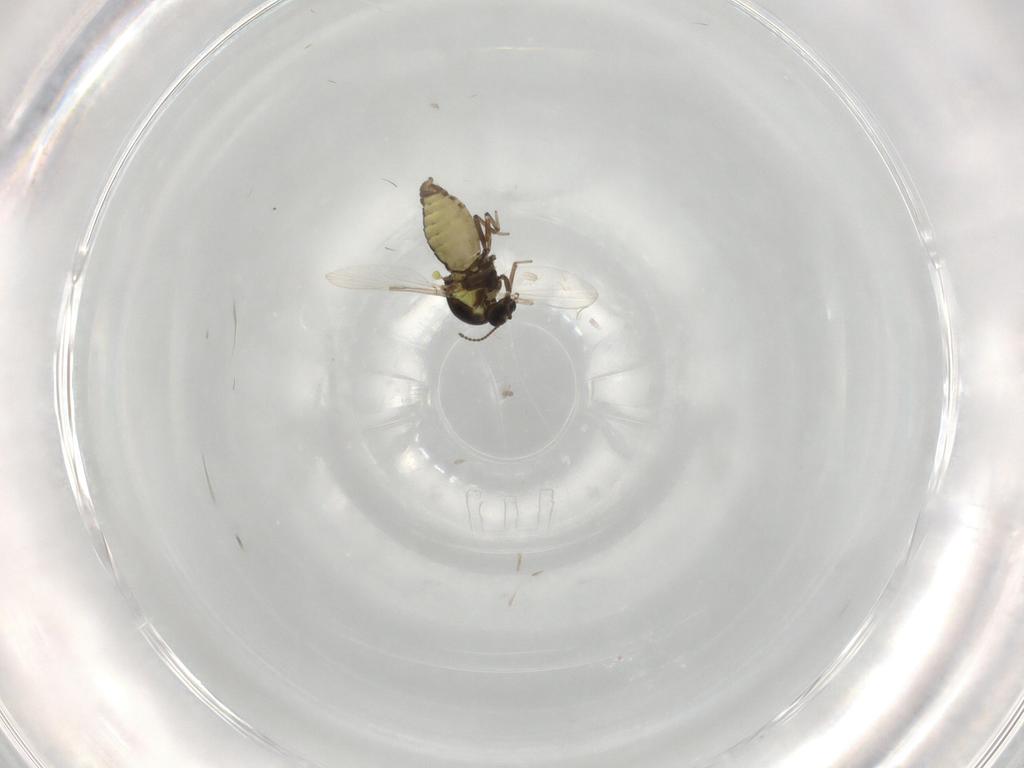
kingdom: Animalia
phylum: Arthropoda
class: Insecta
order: Diptera
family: Ceratopogonidae
